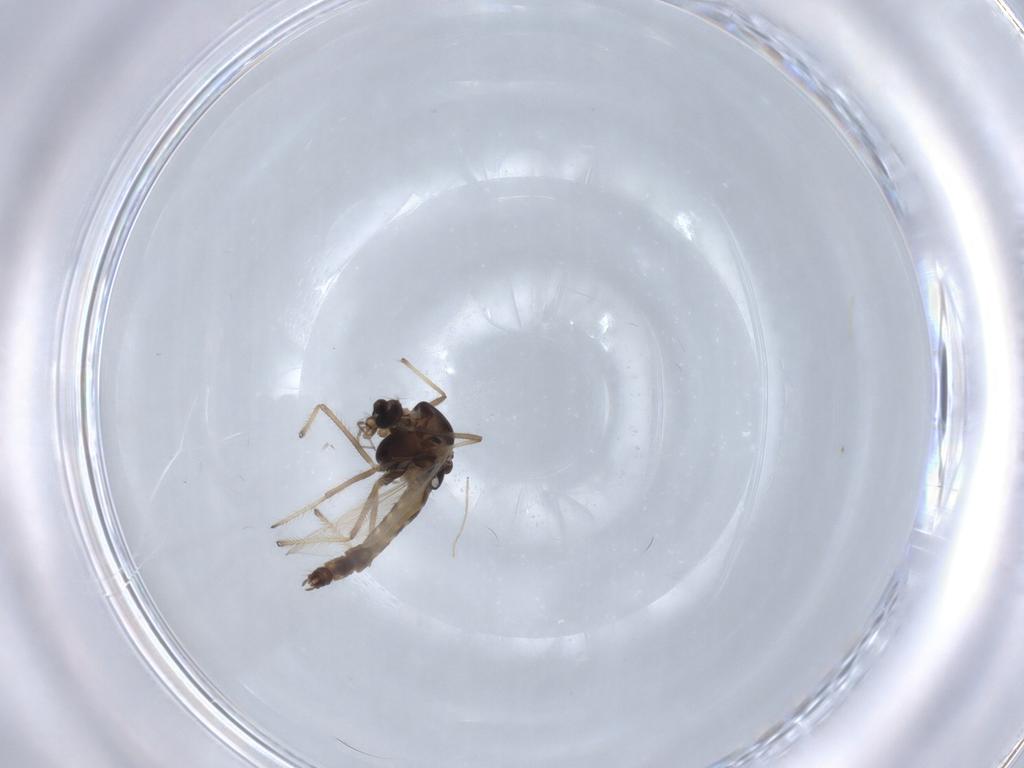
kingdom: Animalia
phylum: Arthropoda
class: Insecta
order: Diptera
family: Chironomidae
